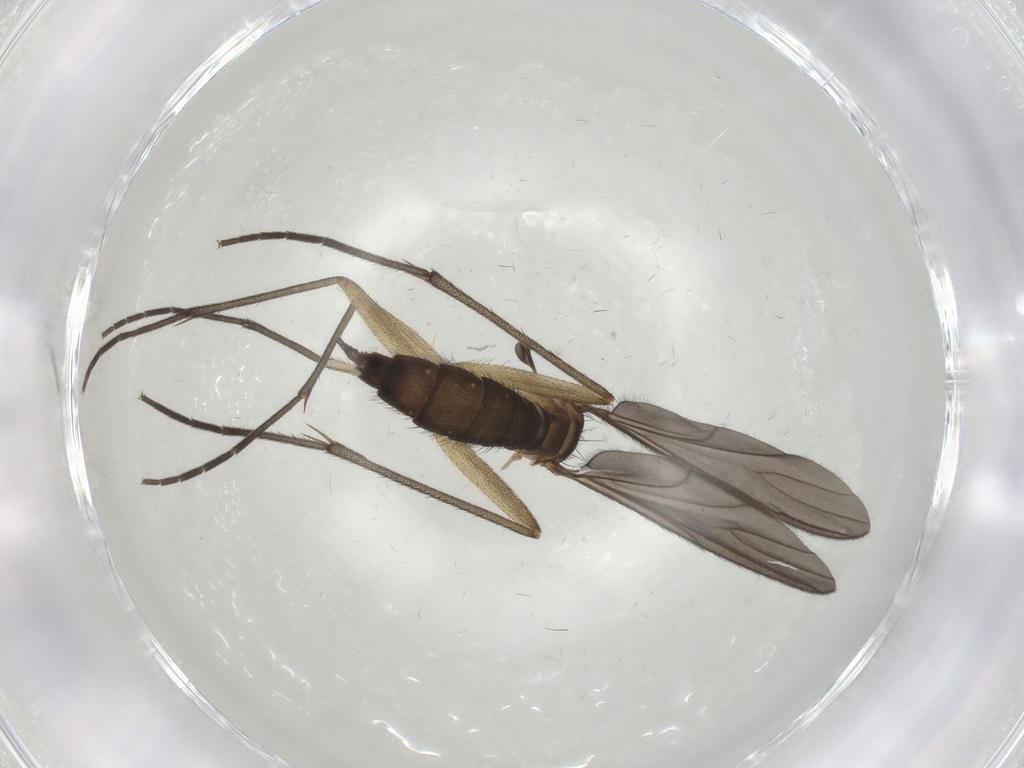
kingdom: Animalia
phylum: Arthropoda
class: Insecta
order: Diptera
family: Sciaridae
